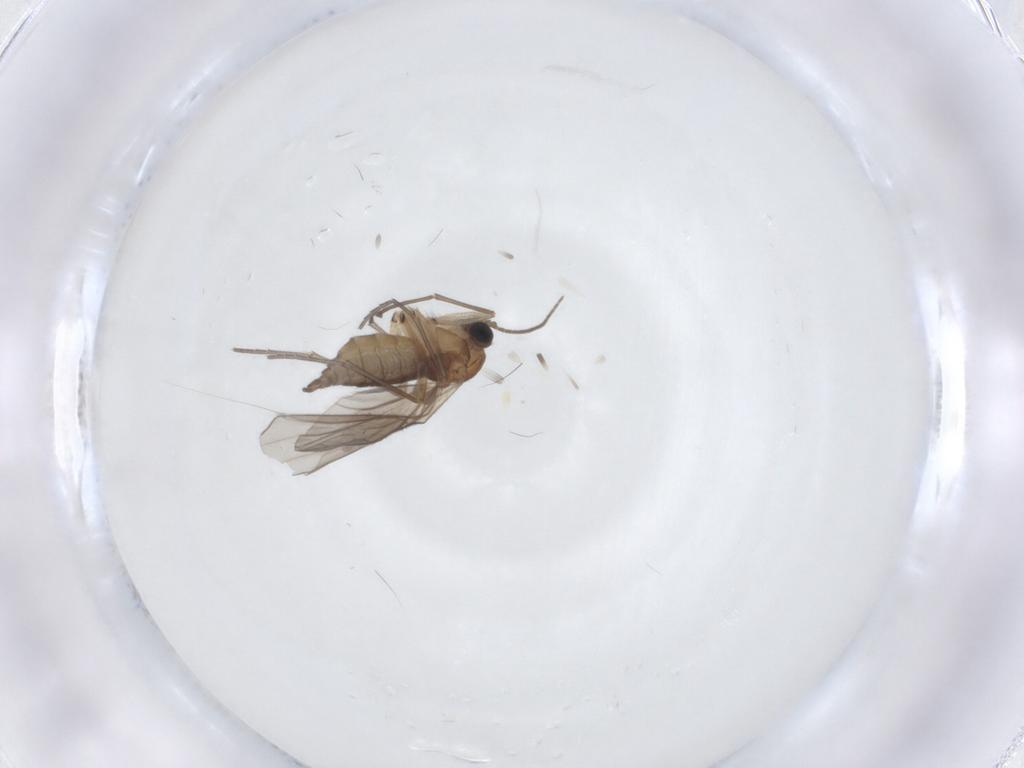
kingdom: Animalia
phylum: Arthropoda
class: Insecta
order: Diptera
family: Sciaridae
